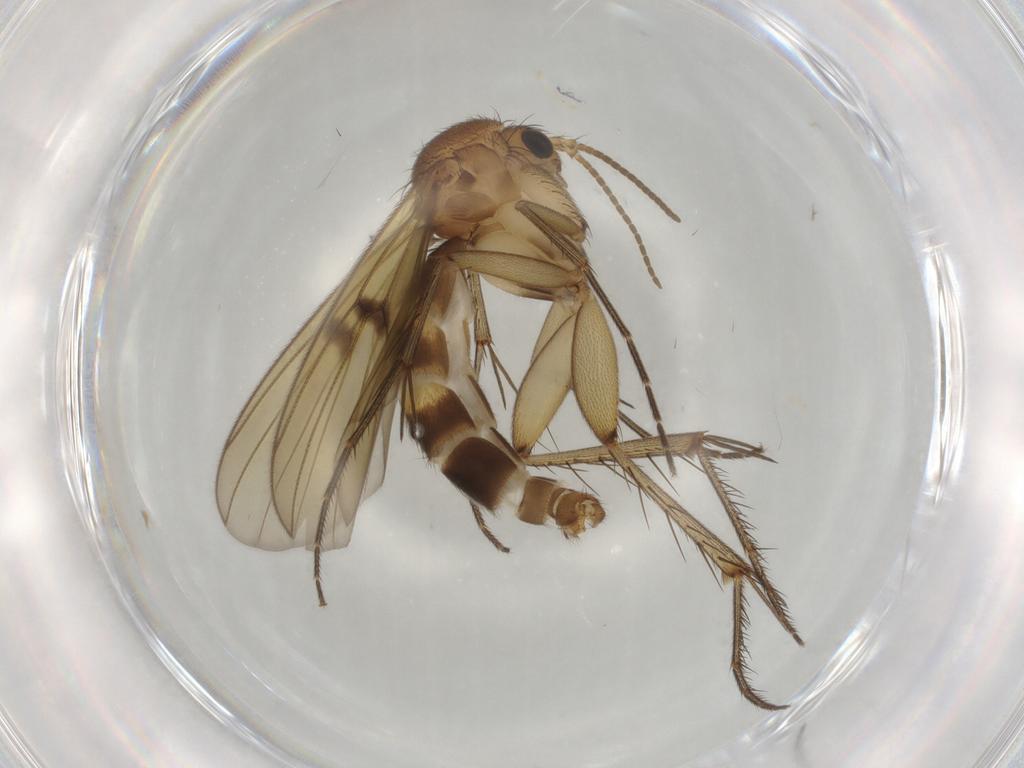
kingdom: Animalia
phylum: Arthropoda
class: Insecta
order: Diptera
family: Mycetophilidae
